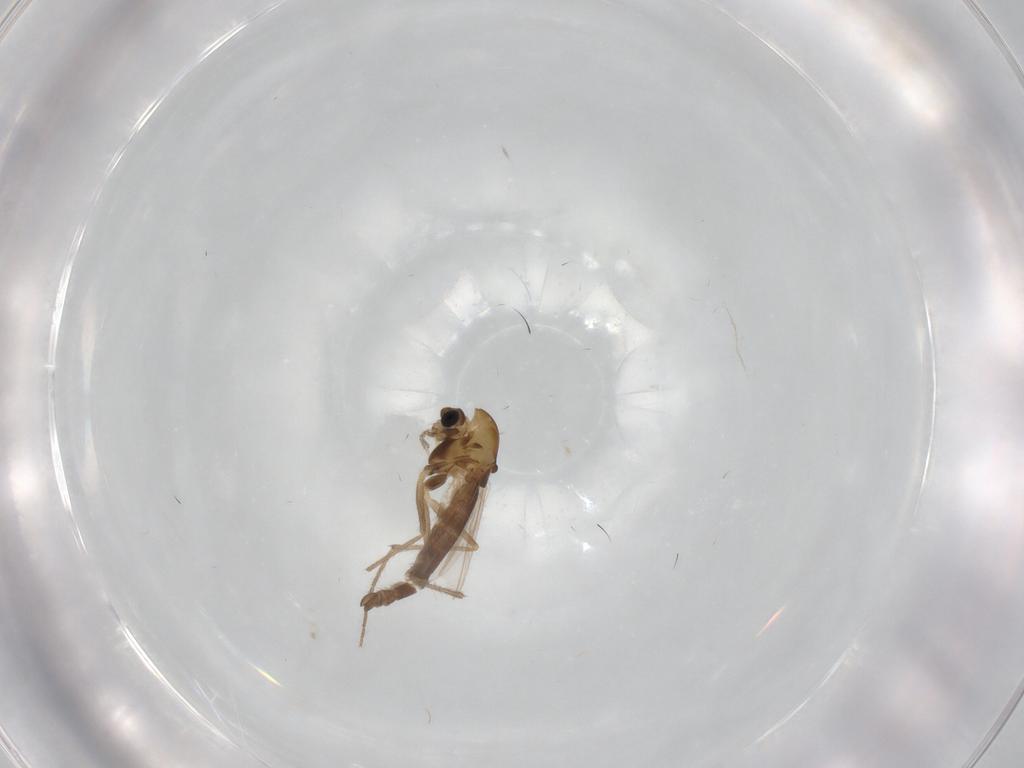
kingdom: Animalia
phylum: Arthropoda
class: Insecta
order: Diptera
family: Chironomidae
